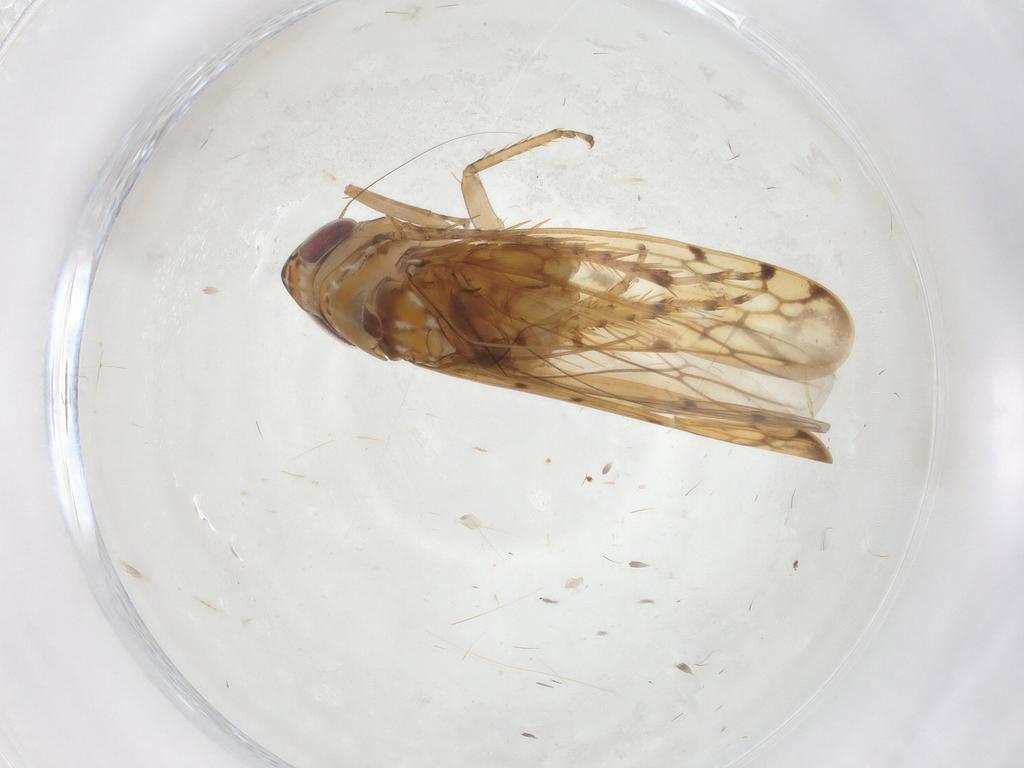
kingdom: Animalia
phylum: Arthropoda
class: Insecta
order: Hemiptera
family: Cicadellidae
